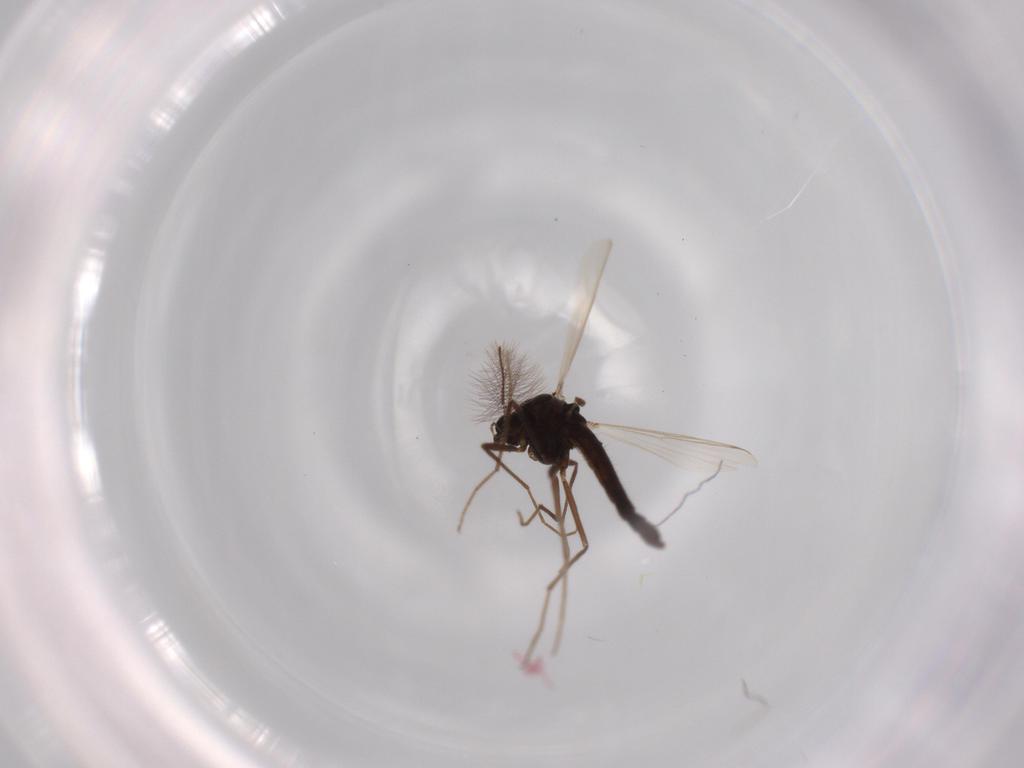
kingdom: Animalia
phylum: Arthropoda
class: Insecta
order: Diptera
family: Chironomidae
